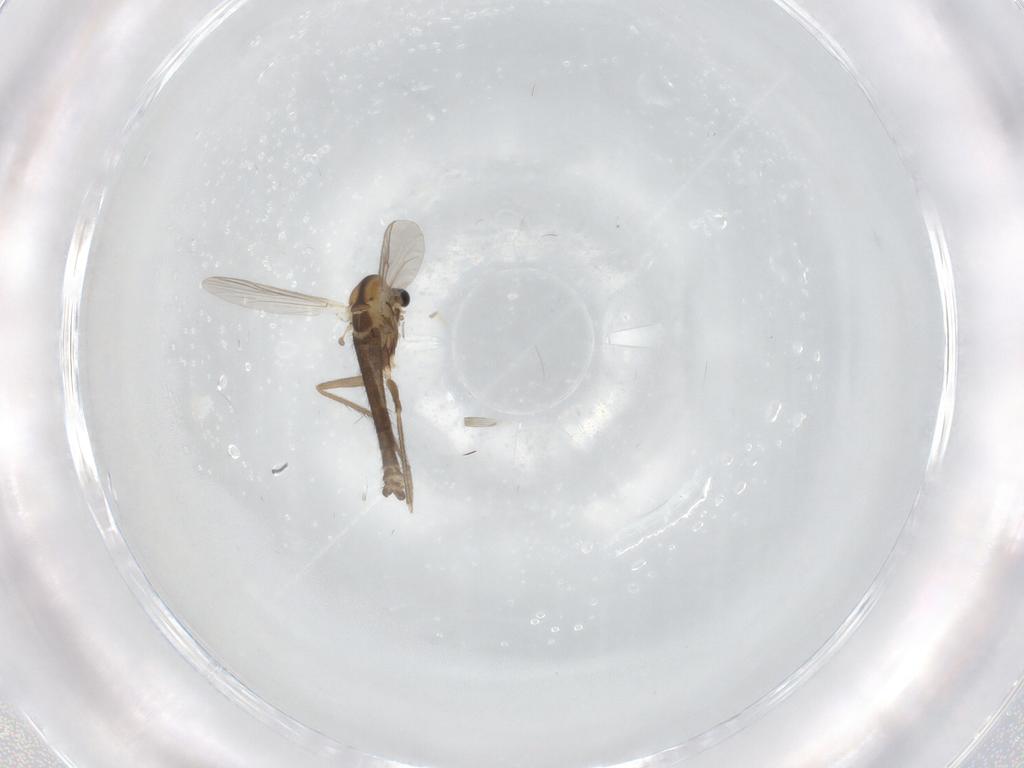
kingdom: Animalia
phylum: Arthropoda
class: Insecta
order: Diptera
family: Chironomidae
